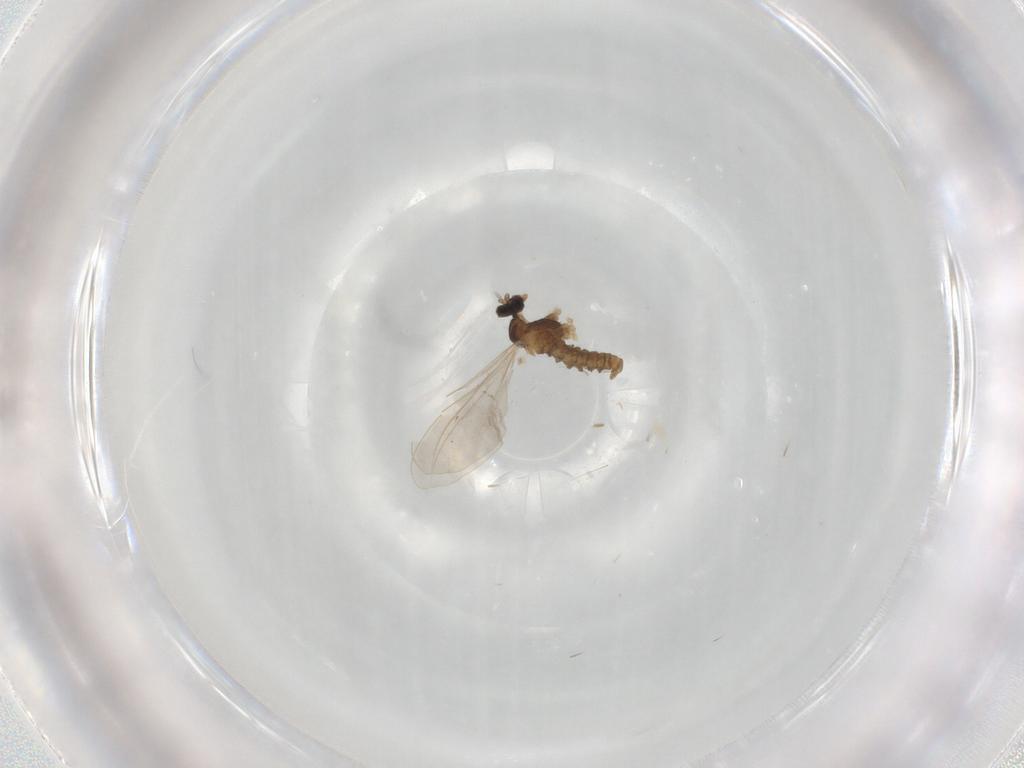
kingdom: Animalia
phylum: Arthropoda
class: Insecta
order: Diptera
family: Cecidomyiidae
